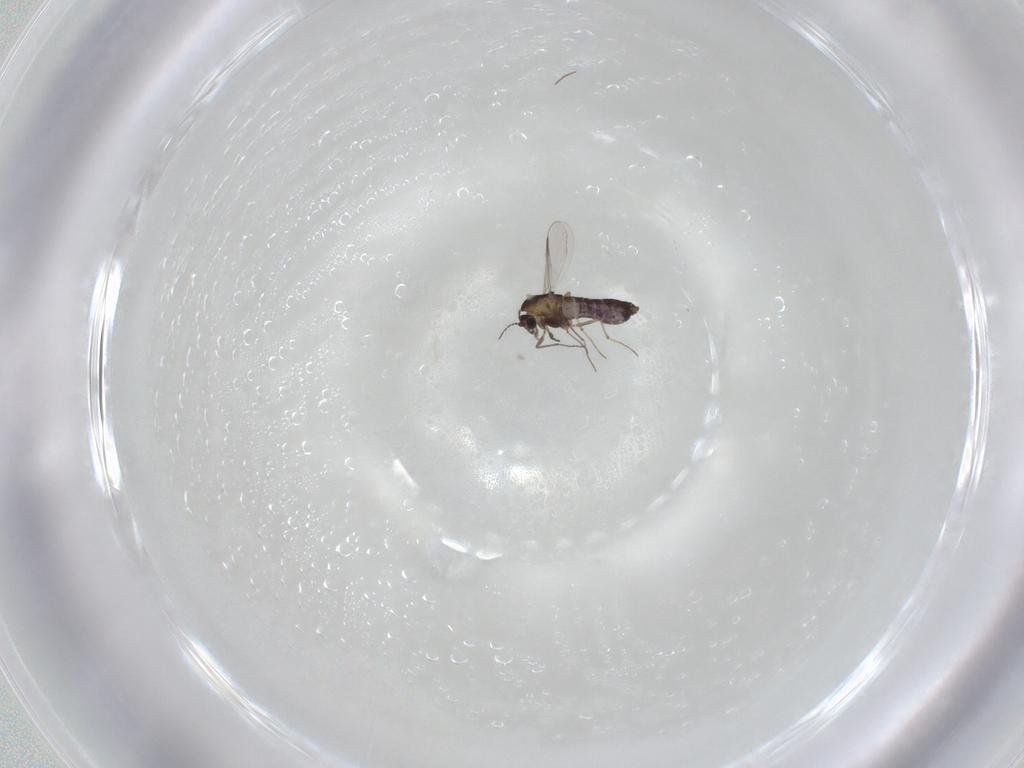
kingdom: Animalia
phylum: Arthropoda
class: Insecta
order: Diptera
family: Chironomidae
